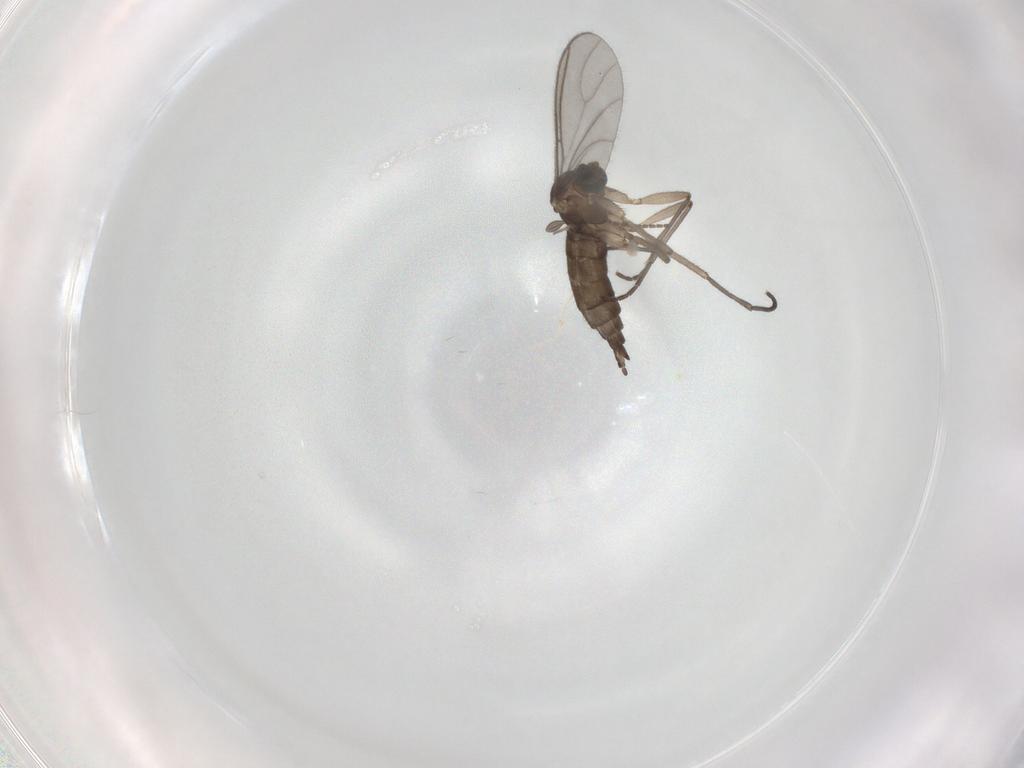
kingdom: Animalia
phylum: Arthropoda
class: Insecta
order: Diptera
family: Sciaridae
